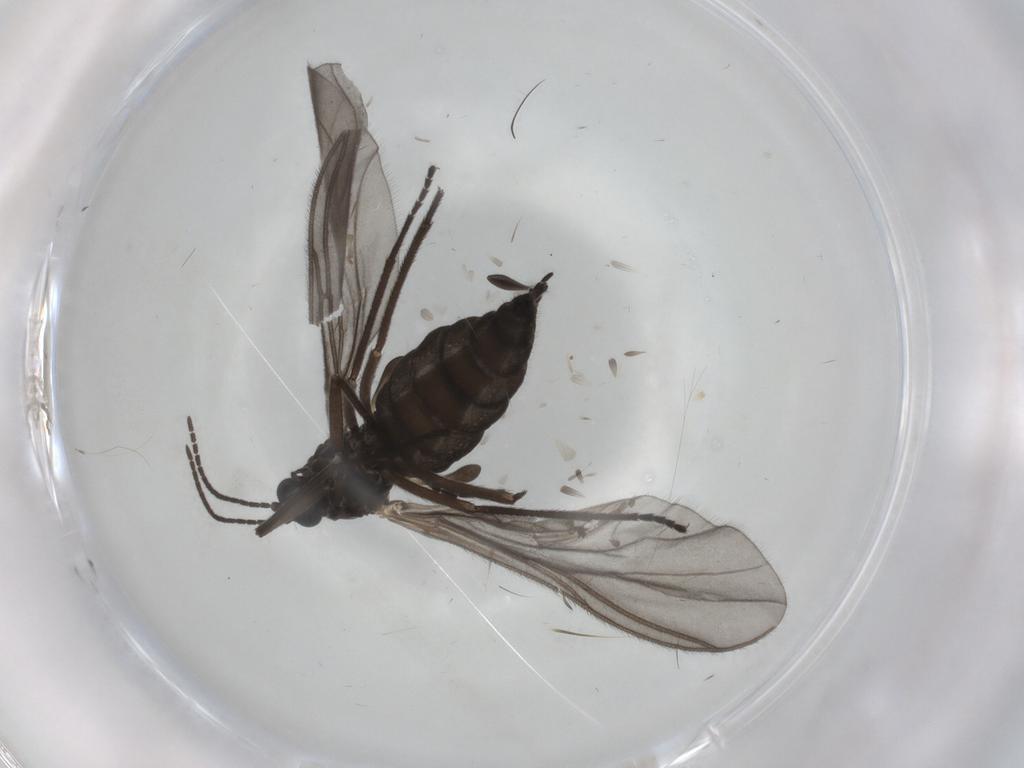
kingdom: Animalia
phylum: Arthropoda
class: Insecta
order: Diptera
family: Sciaridae
